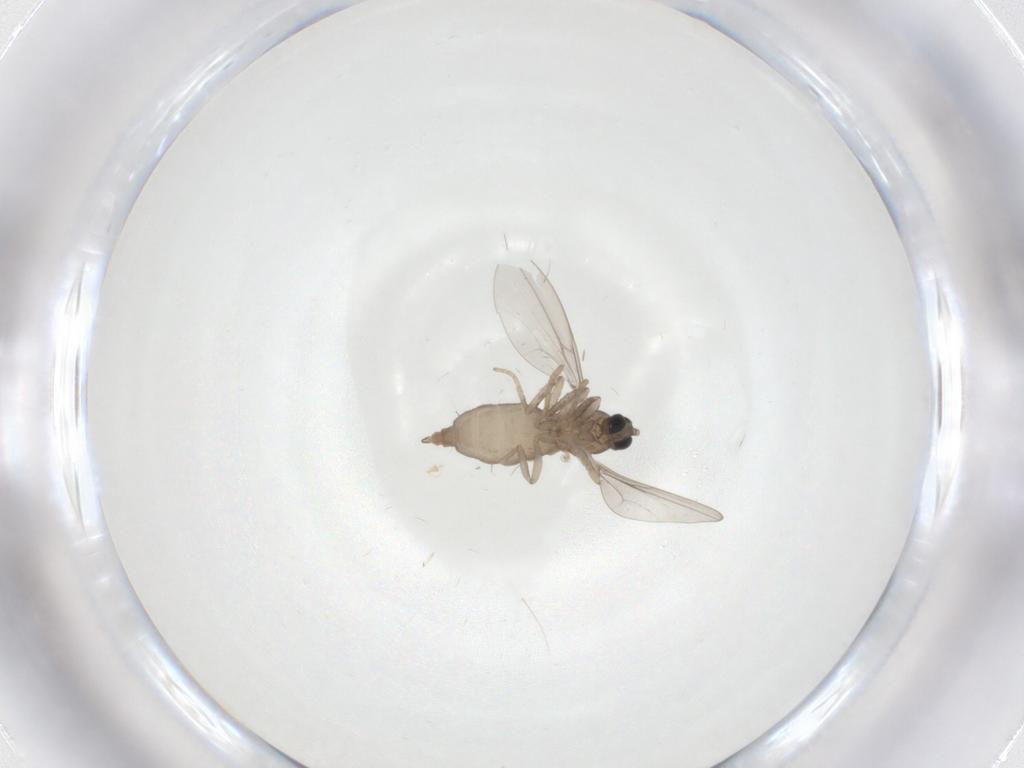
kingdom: Animalia
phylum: Arthropoda
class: Insecta
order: Diptera
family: Cecidomyiidae
